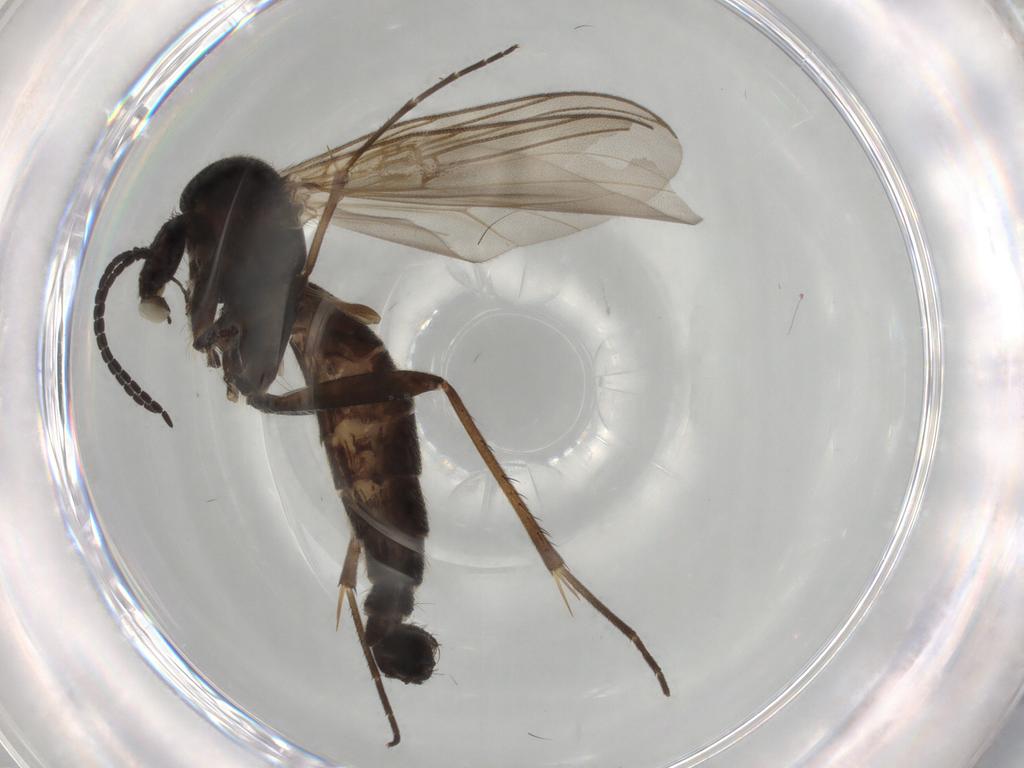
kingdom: Animalia
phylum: Arthropoda
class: Insecta
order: Diptera
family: Mycetophilidae
